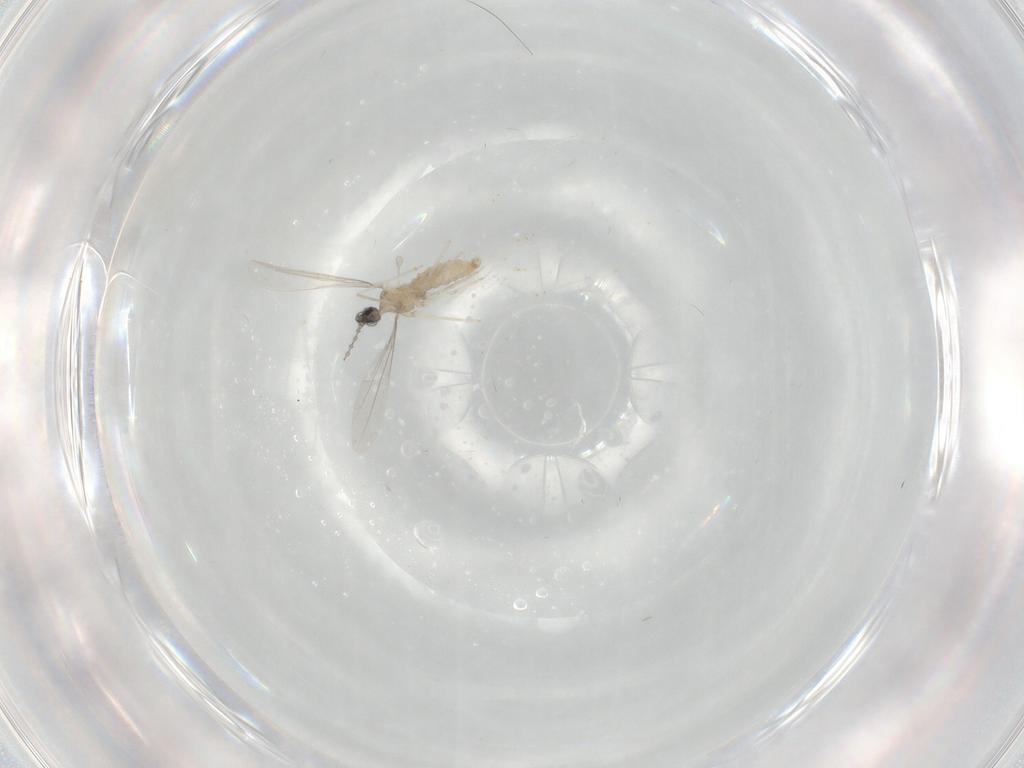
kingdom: Animalia
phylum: Arthropoda
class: Insecta
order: Diptera
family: Cecidomyiidae
